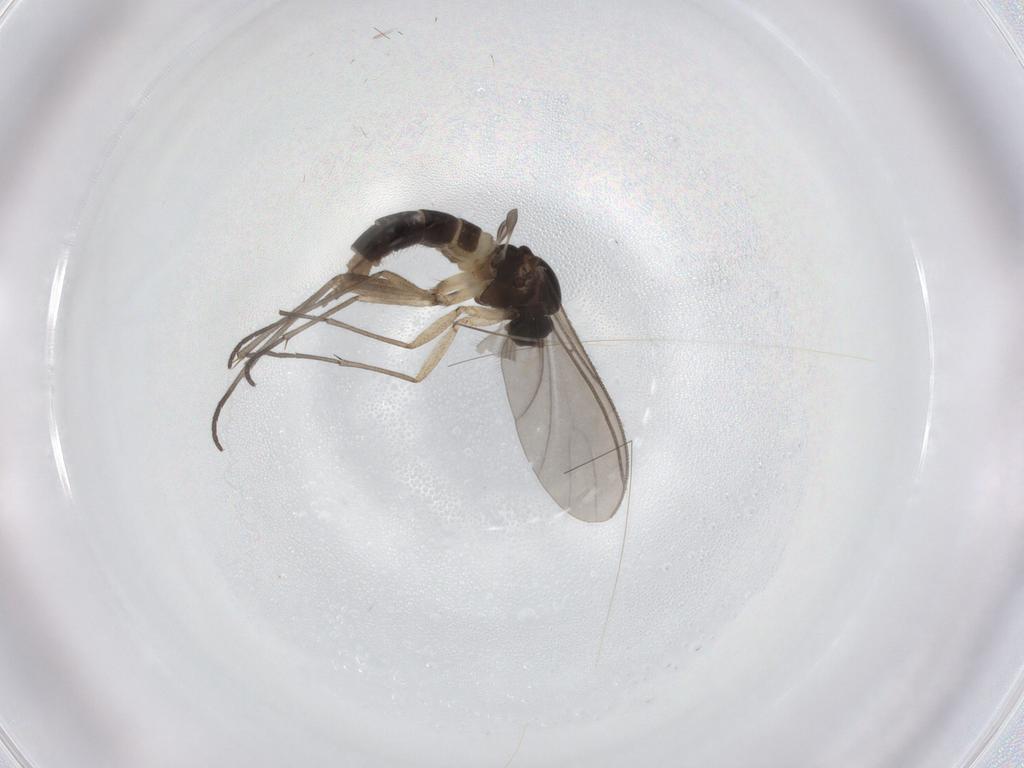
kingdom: Animalia
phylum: Arthropoda
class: Insecta
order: Diptera
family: Sciaridae
